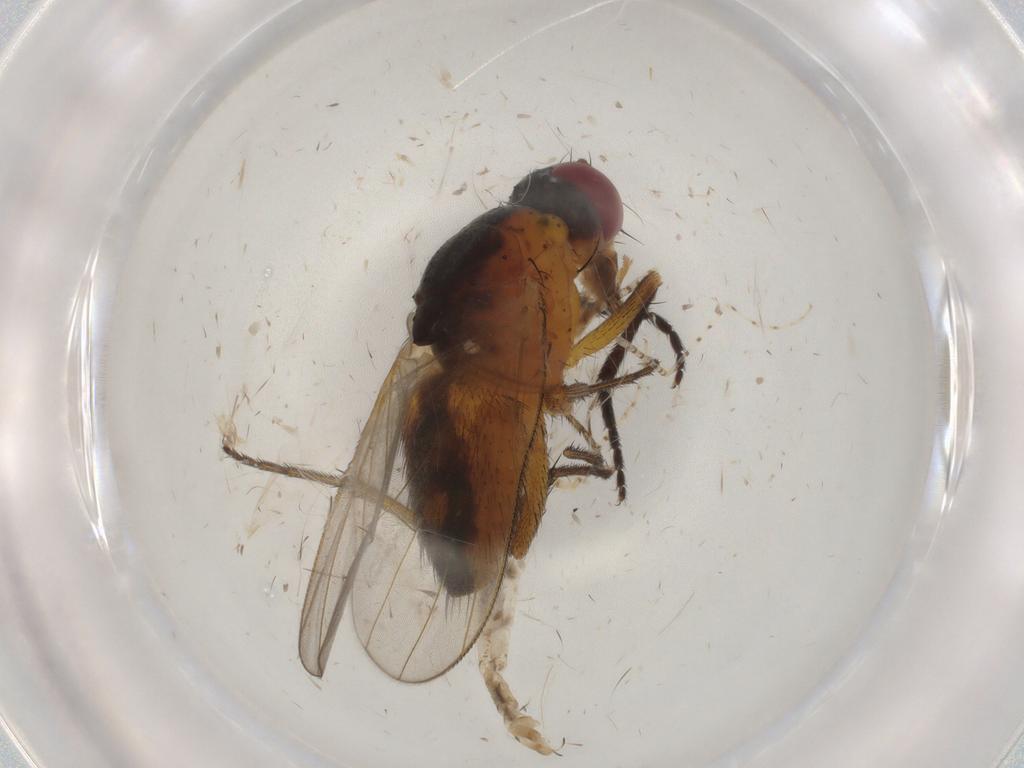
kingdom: Animalia
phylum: Arthropoda
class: Insecta
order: Diptera
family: Muscidae
